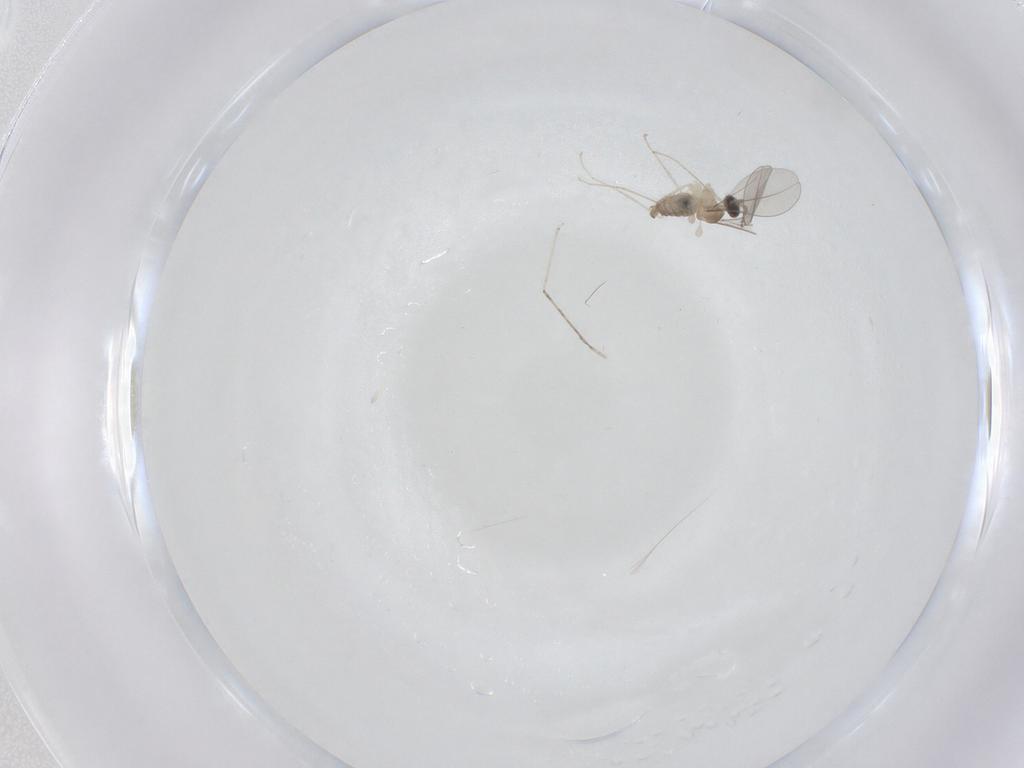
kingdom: Animalia
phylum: Arthropoda
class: Insecta
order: Diptera
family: Cecidomyiidae
